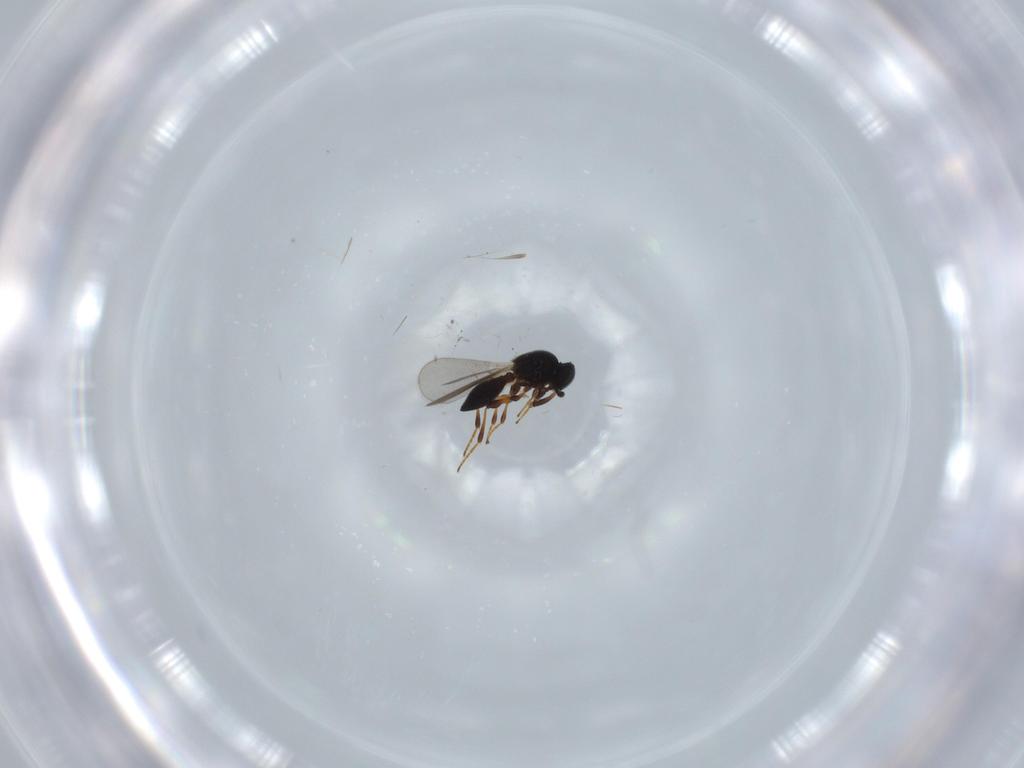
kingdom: Animalia
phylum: Arthropoda
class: Insecta
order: Hymenoptera
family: Platygastridae
